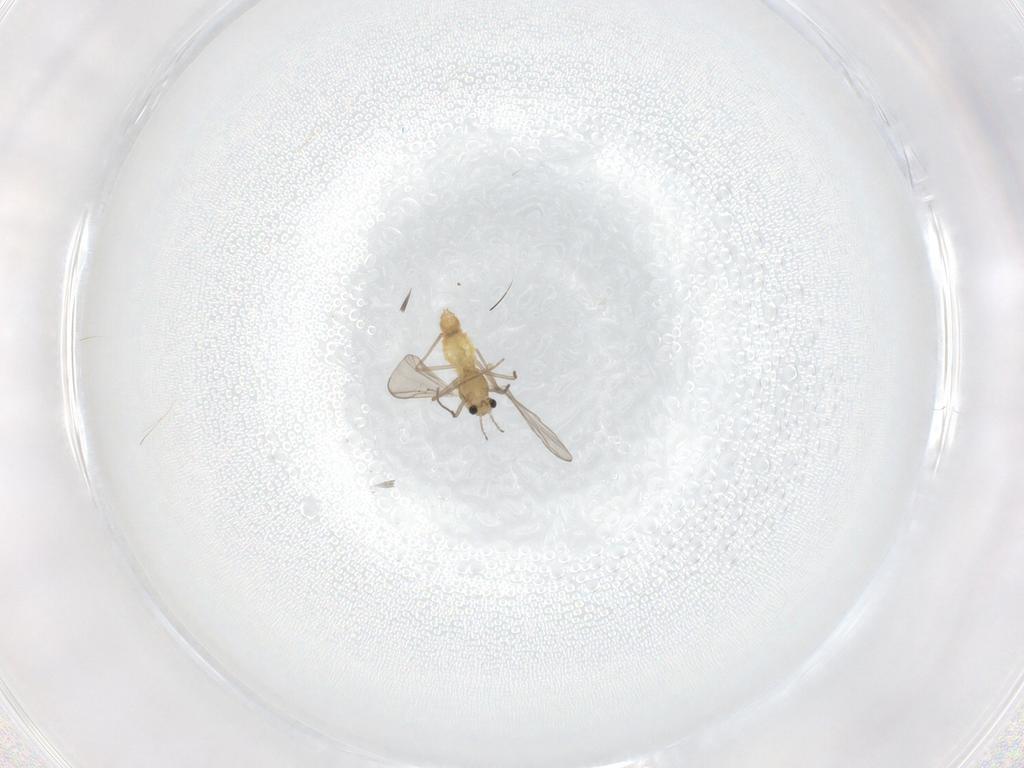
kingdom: Animalia
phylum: Arthropoda
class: Insecta
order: Diptera
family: Chironomidae
